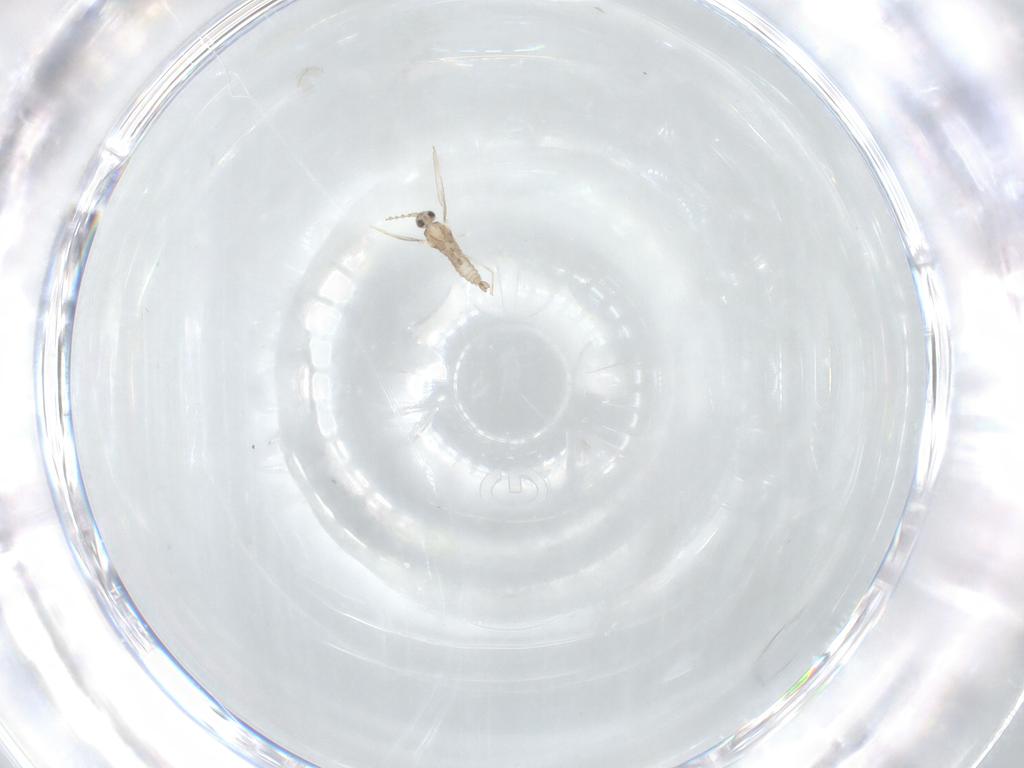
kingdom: Animalia
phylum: Arthropoda
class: Insecta
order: Diptera
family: Cecidomyiidae
